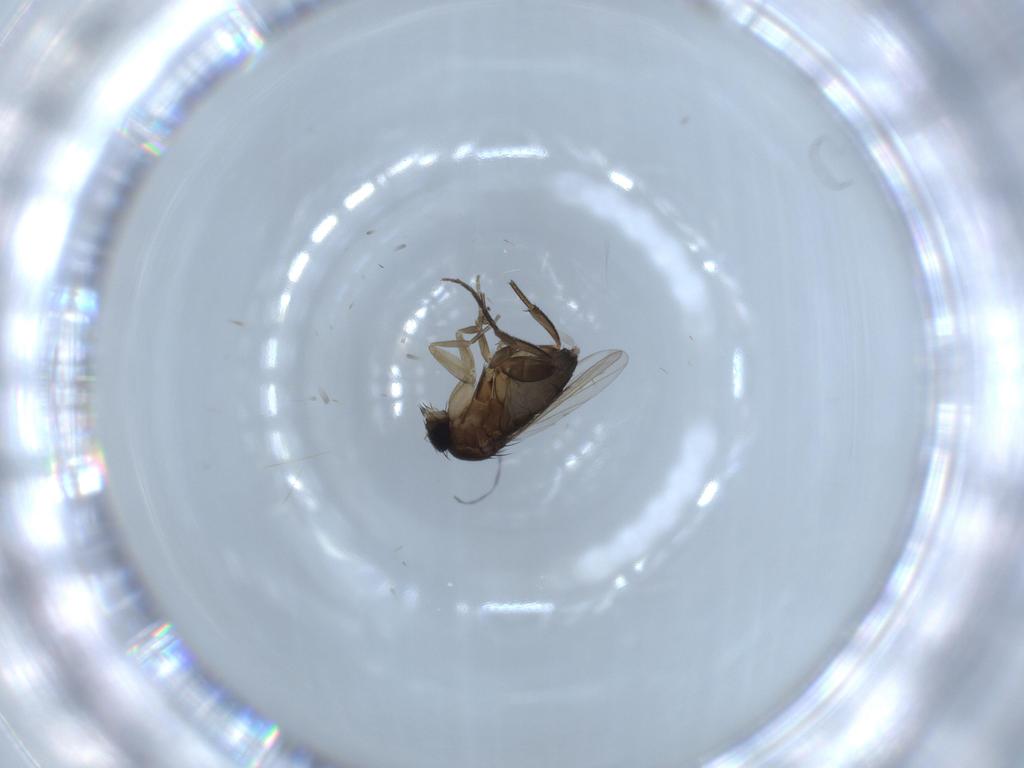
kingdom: Animalia
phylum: Arthropoda
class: Insecta
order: Diptera
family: Phoridae
